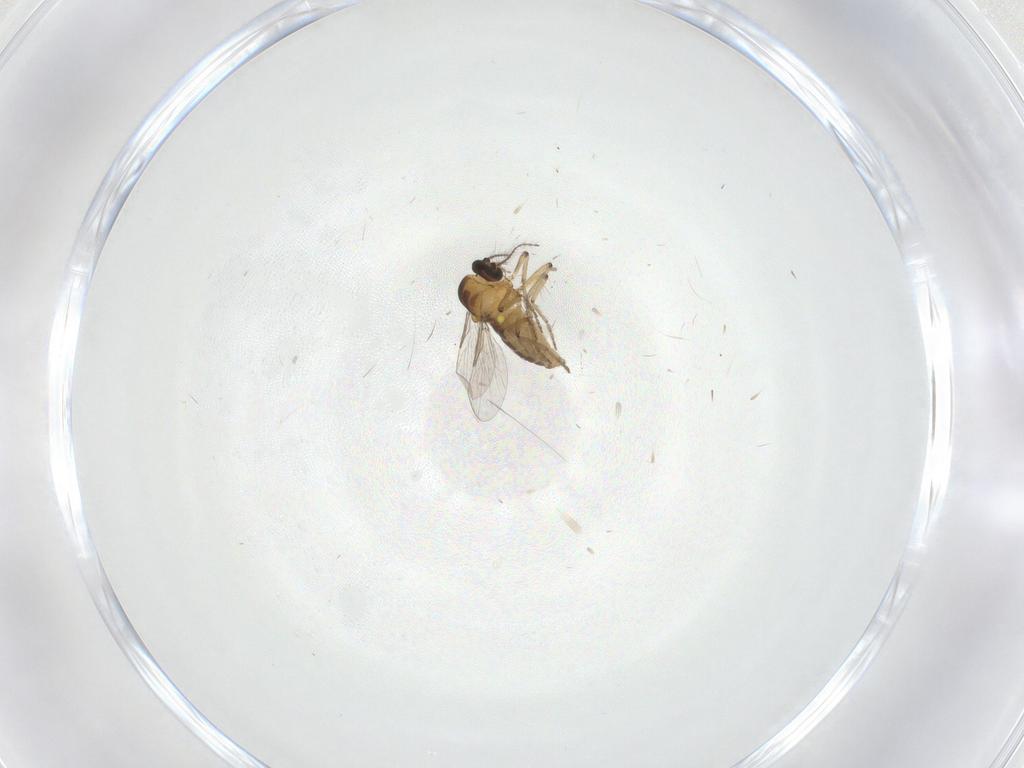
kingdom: Animalia
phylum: Arthropoda
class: Insecta
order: Diptera
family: Ceratopogonidae
